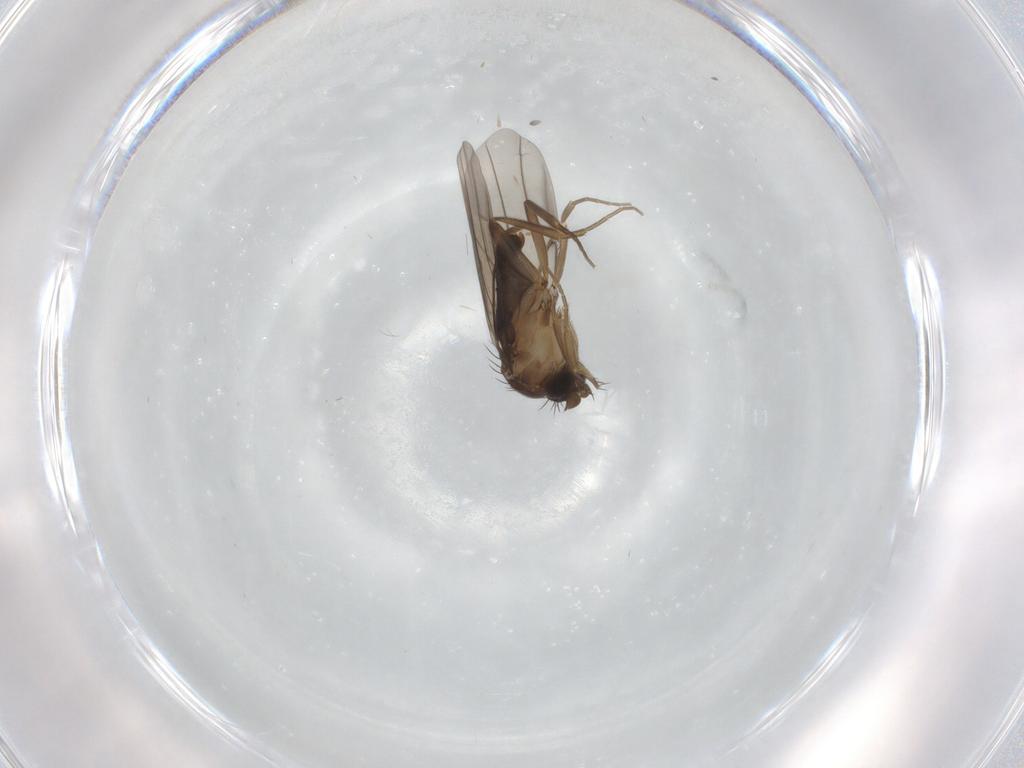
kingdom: Animalia
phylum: Arthropoda
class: Insecta
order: Diptera
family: Phoridae
